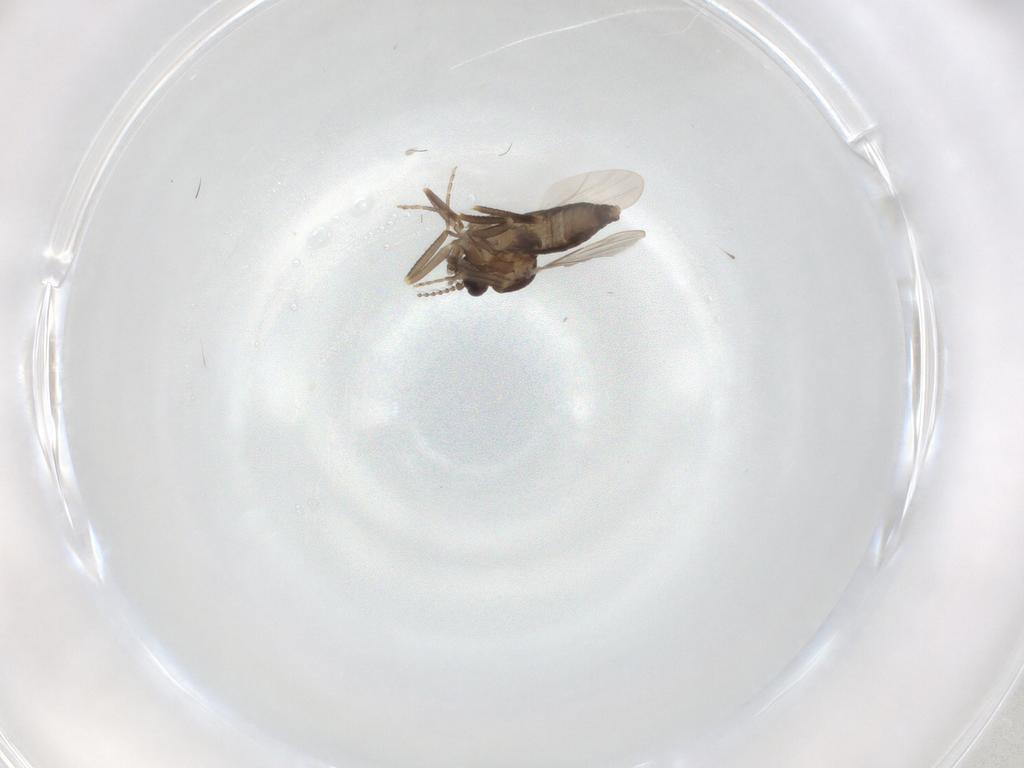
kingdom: Animalia
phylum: Arthropoda
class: Insecta
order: Diptera
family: Ceratopogonidae
